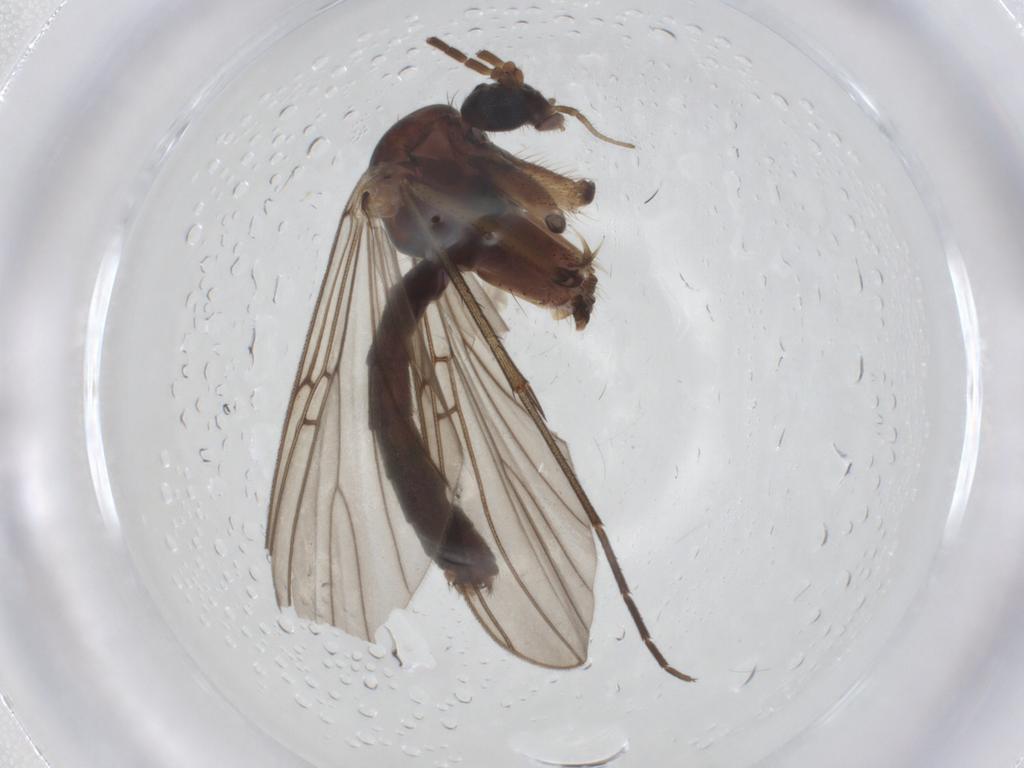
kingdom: Animalia
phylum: Arthropoda
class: Insecta
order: Diptera
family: Mycetophilidae
